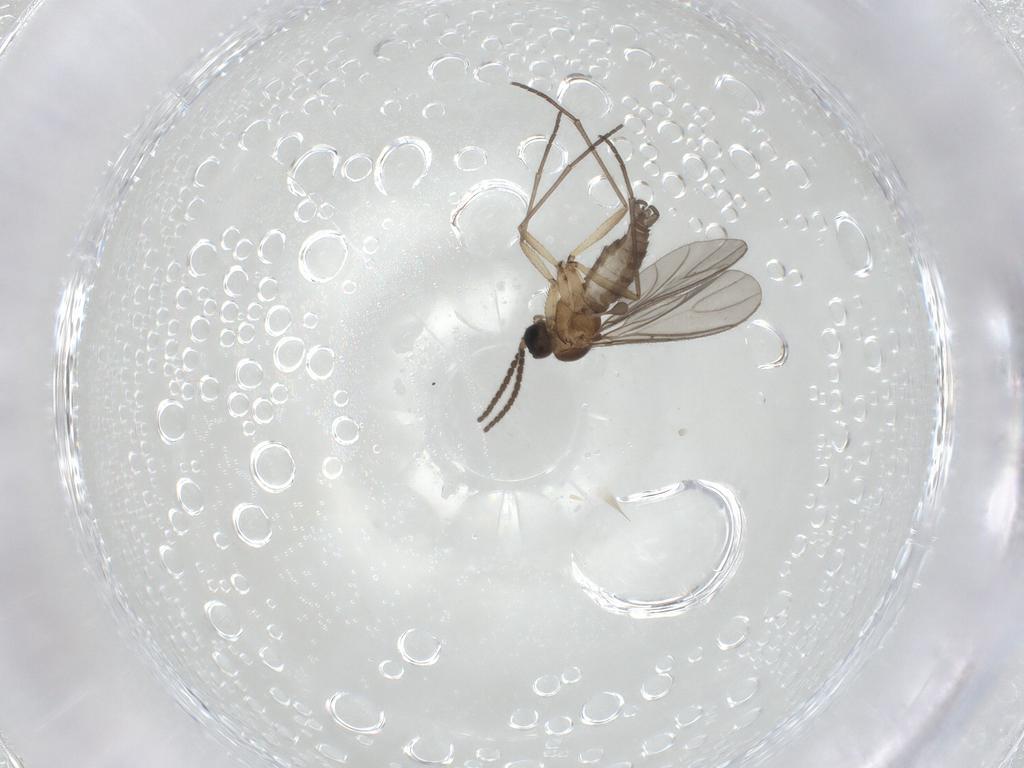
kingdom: Animalia
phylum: Arthropoda
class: Insecta
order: Diptera
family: Sciaridae
